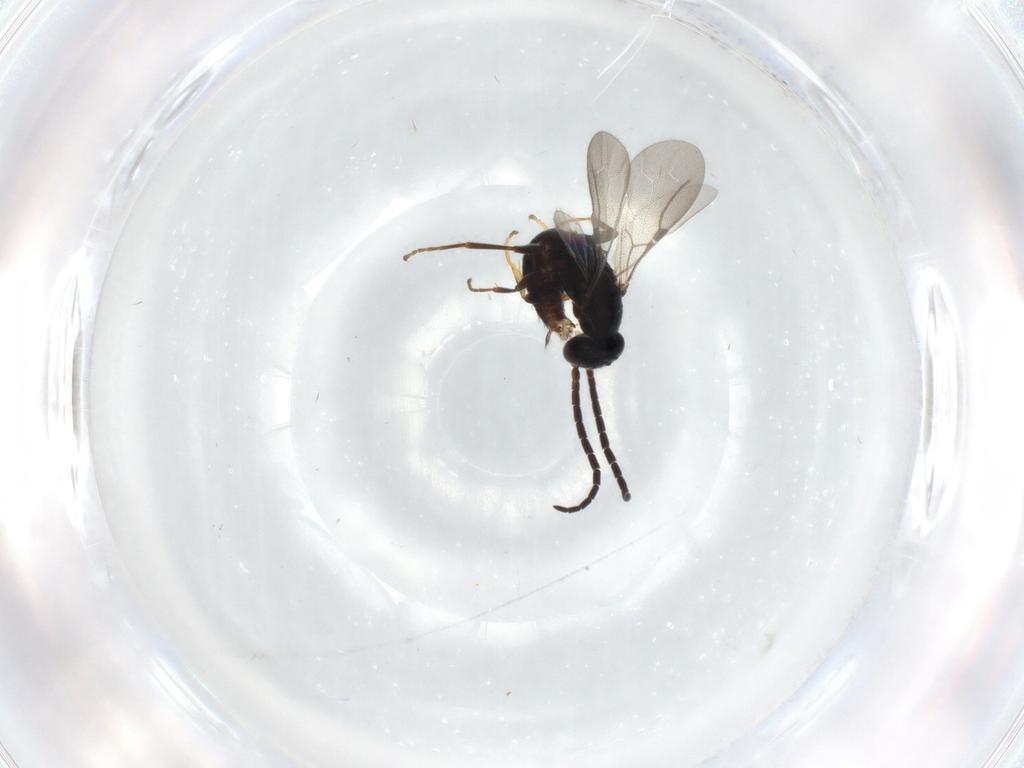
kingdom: Animalia
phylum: Arthropoda
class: Insecta
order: Hymenoptera
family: Bethylidae
